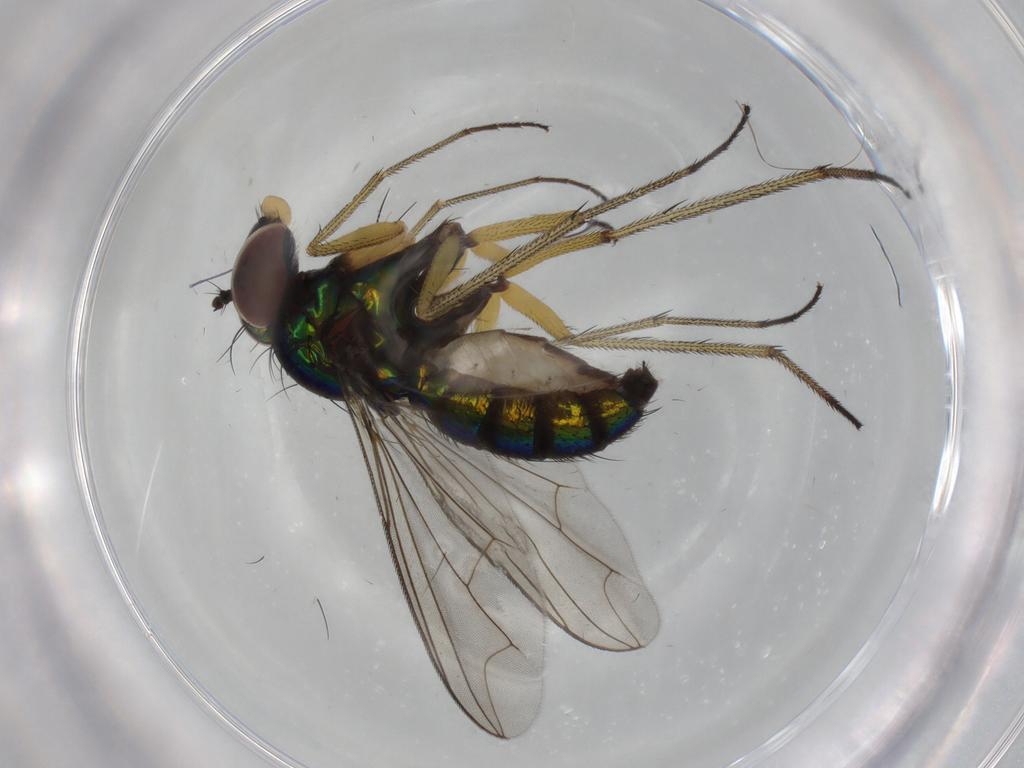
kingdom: Animalia
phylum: Arthropoda
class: Insecta
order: Diptera
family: Dolichopodidae
